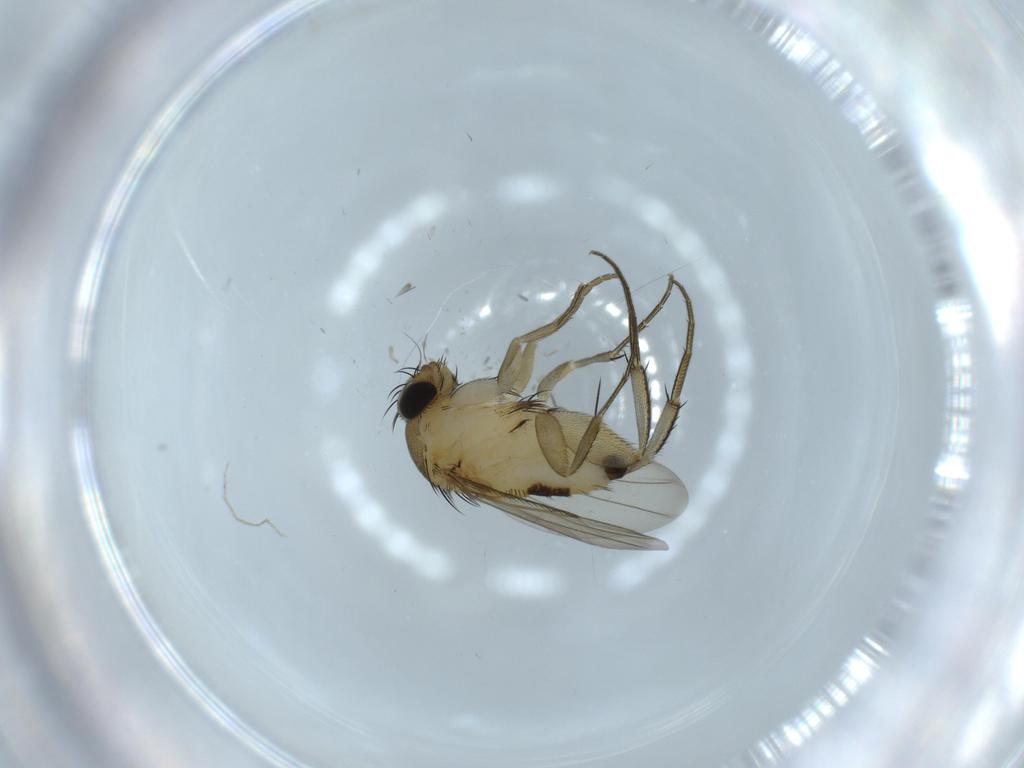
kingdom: Animalia
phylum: Arthropoda
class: Insecta
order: Diptera
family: Phoridae
